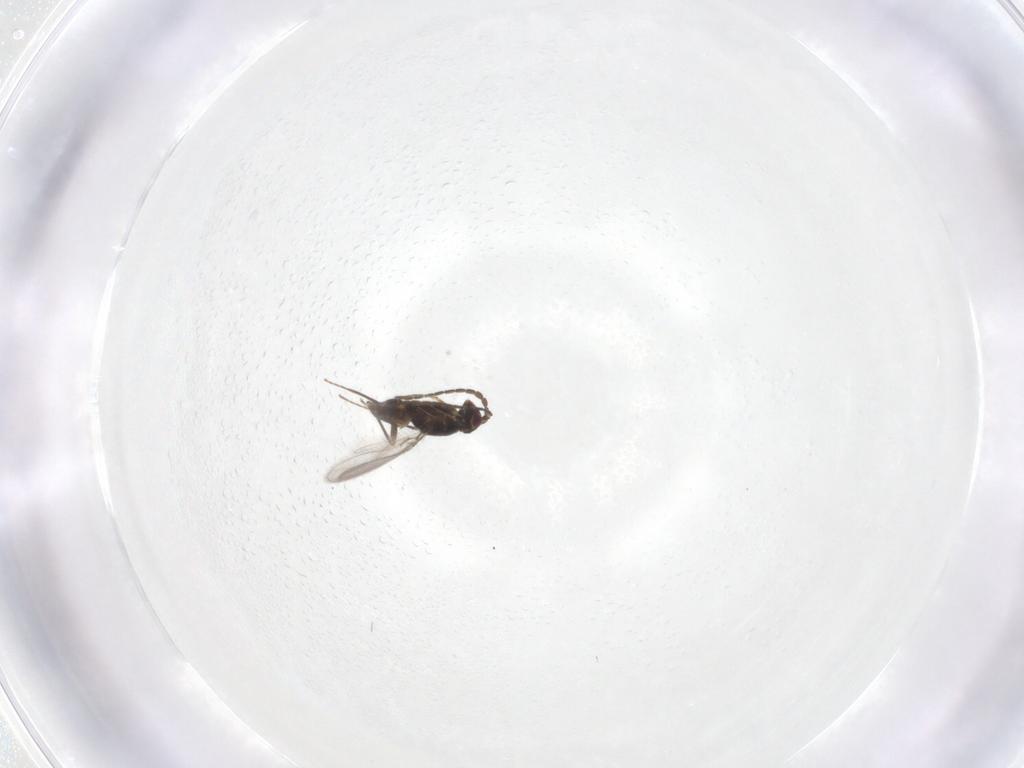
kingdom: Animalia
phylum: Arthropoda
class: Insecta
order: Hymenoptera
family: Mymaridae
